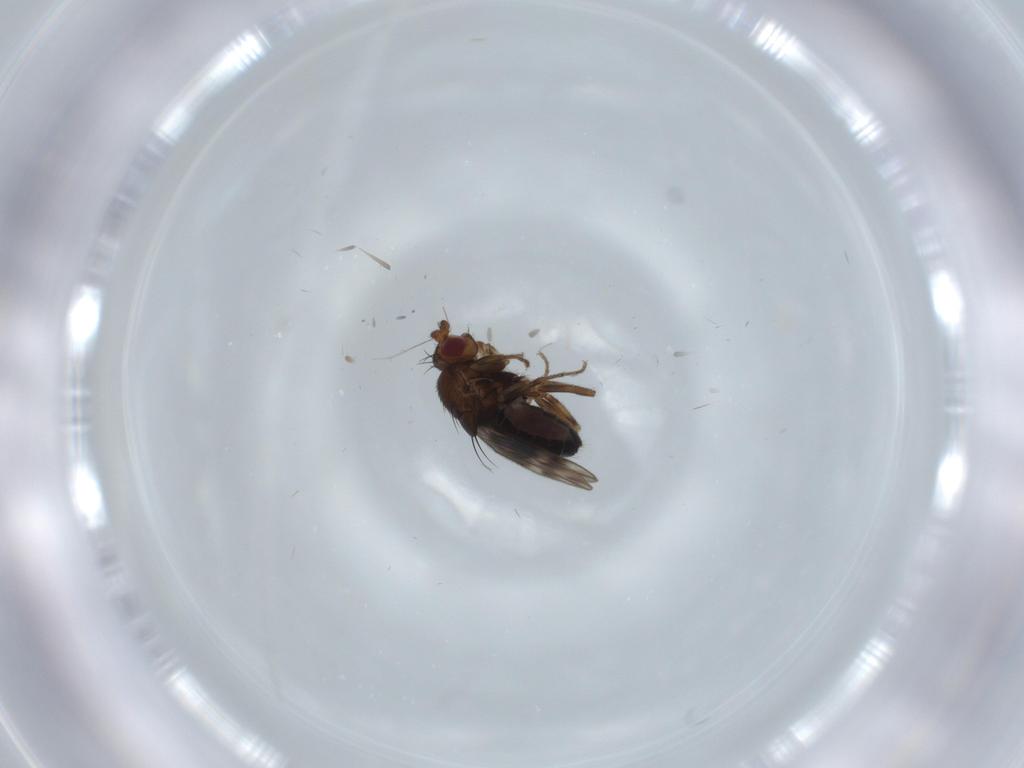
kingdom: Animalia
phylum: Arthropoda
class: Insecta
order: Diptera
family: Sphaeroceridae
